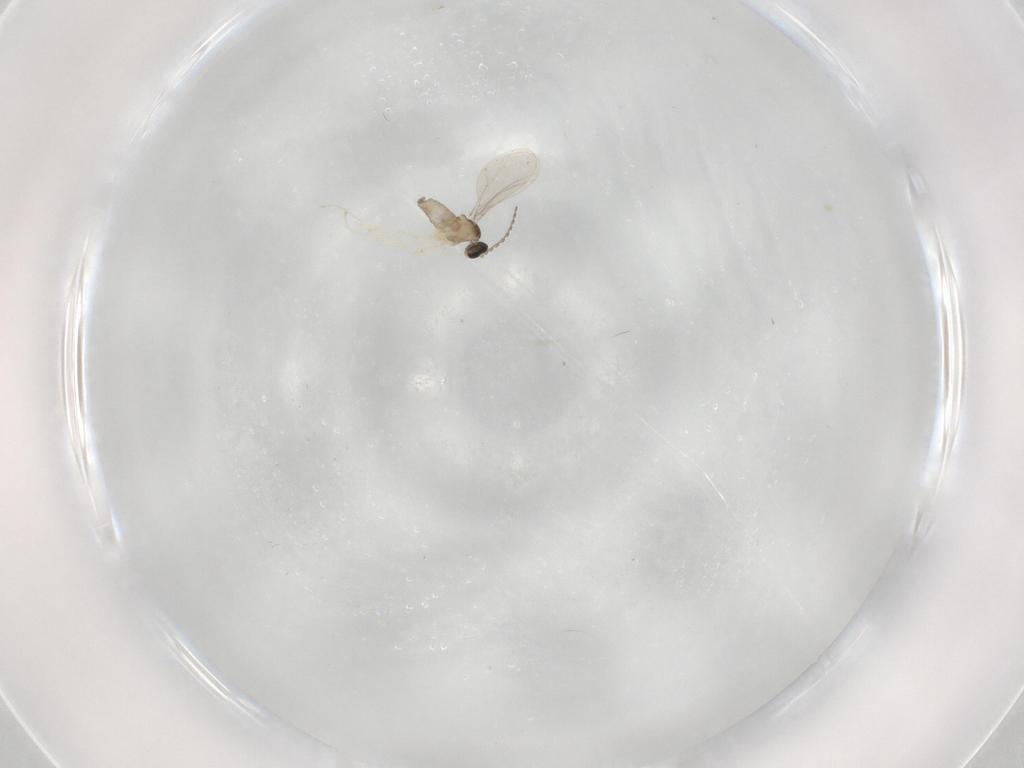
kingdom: Animalia
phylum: Arthropoda
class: Insecta
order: Diptera
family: Cecidomyiidae
